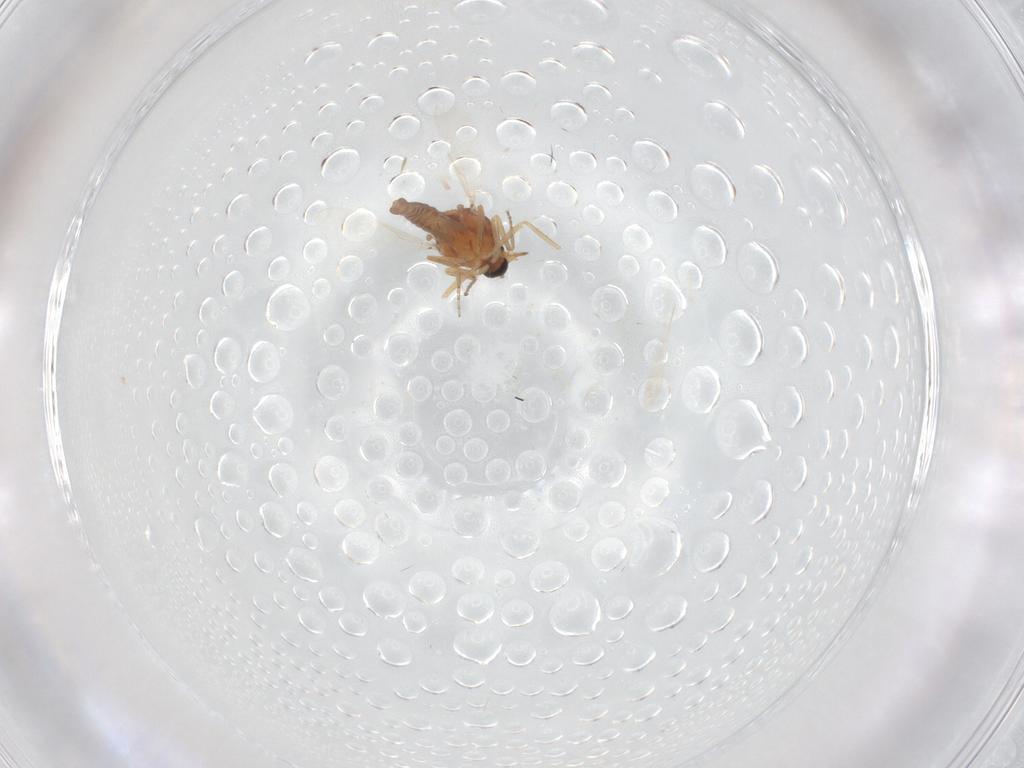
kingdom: Animalia
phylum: Arthropoda
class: Insecta
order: Diptera
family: Ceratopogonidae
